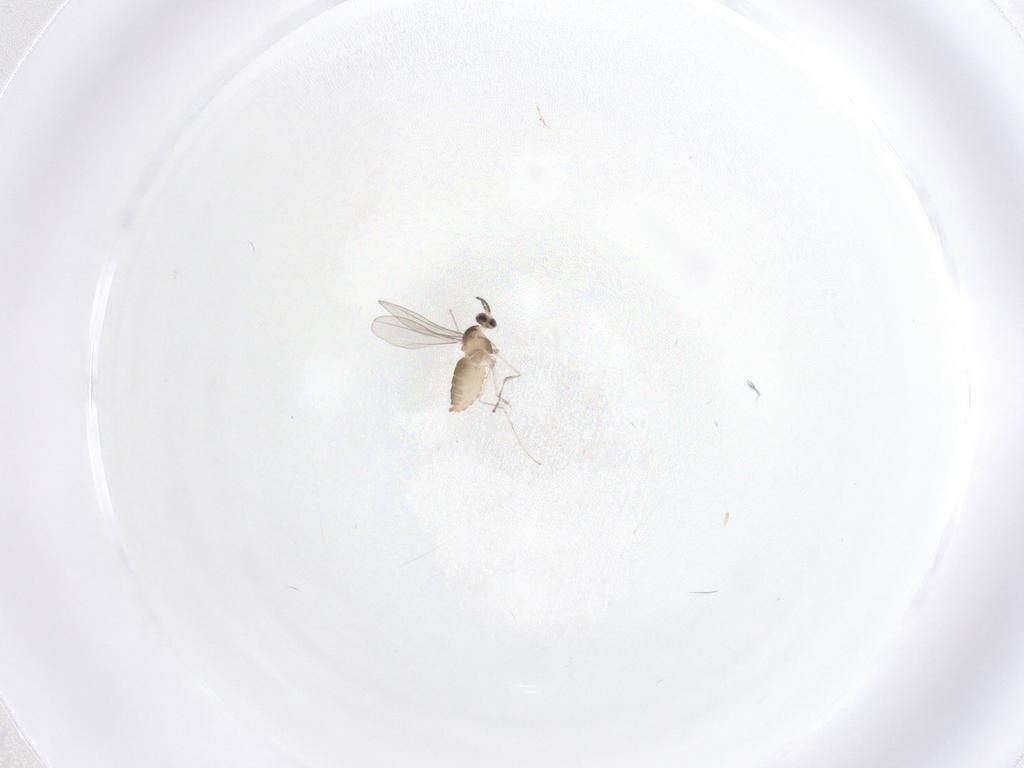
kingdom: Animalia
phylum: Arthropoda
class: Insecta
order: Diptera
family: Cecidomyiidae
